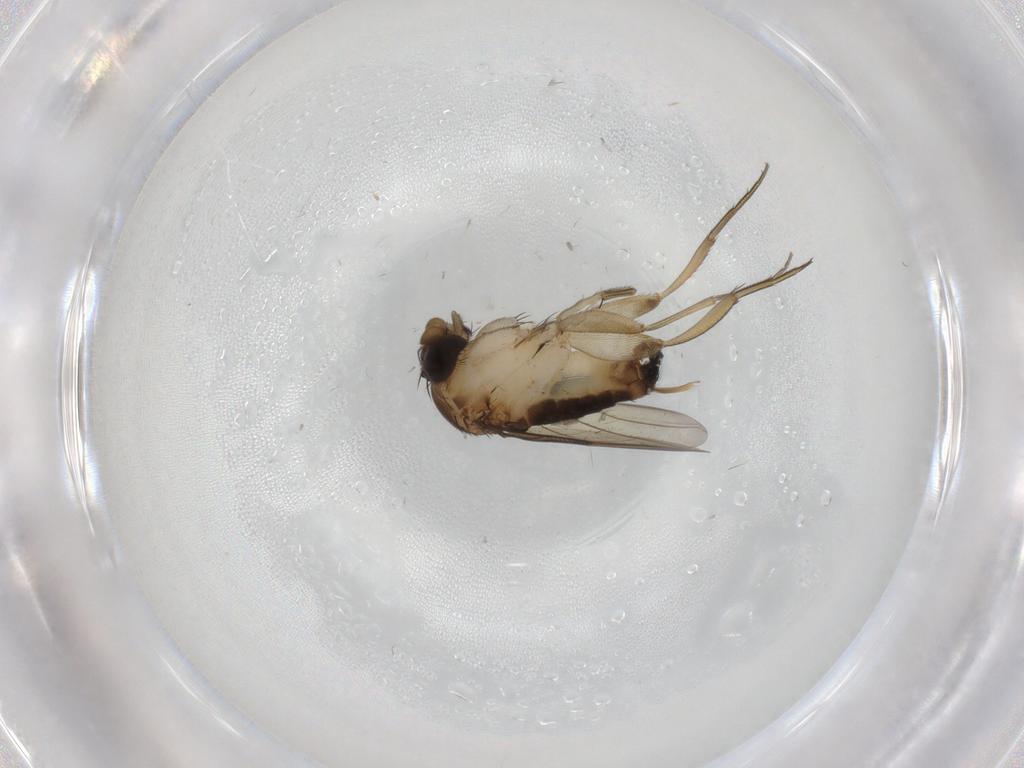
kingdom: Animalia
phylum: Arthropoda
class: Insecta
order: Diptera
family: Phoridae
